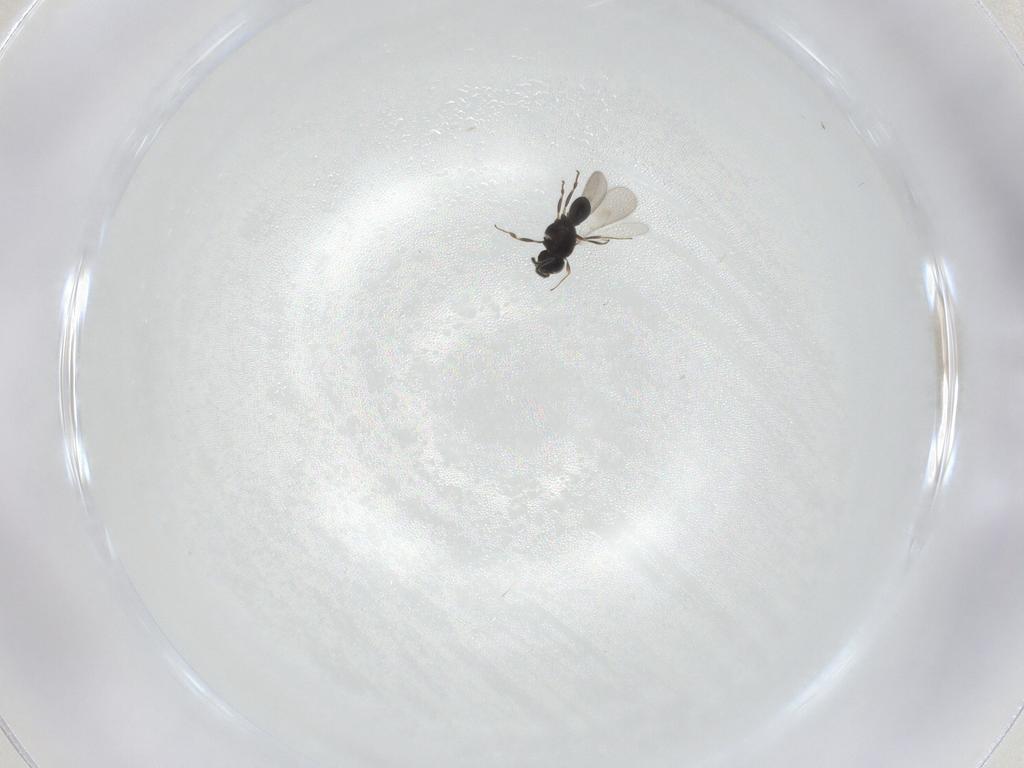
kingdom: Animalia
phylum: Arthropoda
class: Insecta
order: Hymenoptera
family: Scelionidae
